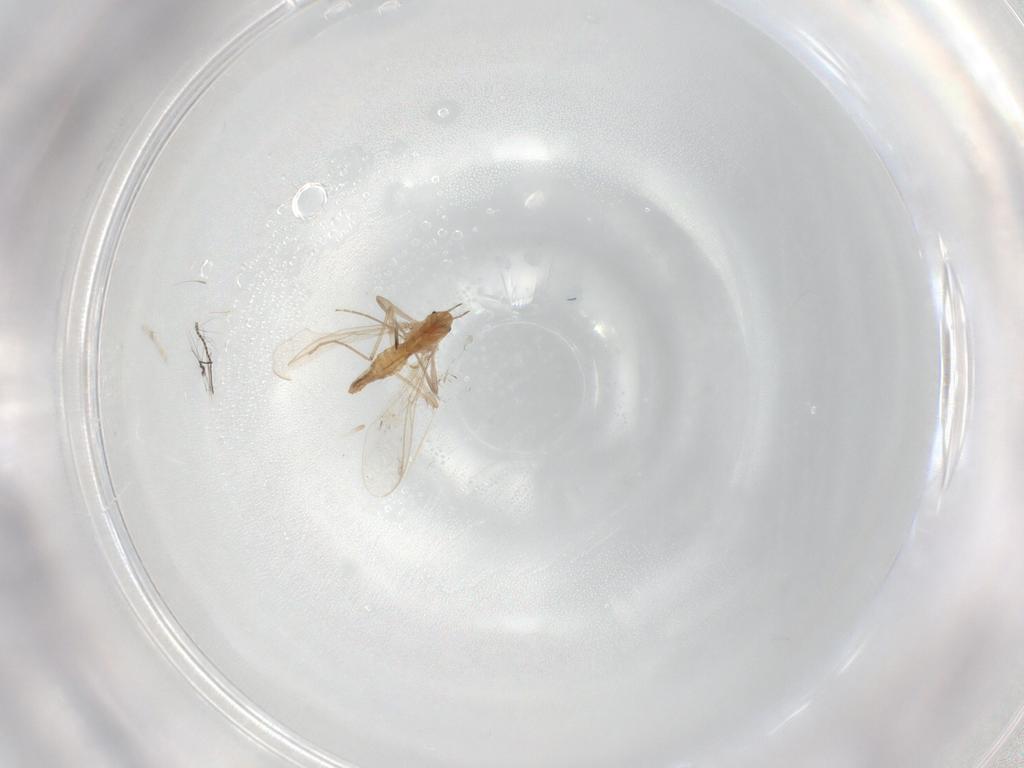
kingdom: Animalia
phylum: Arthropoda
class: Insecta
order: Diptera
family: Chironomidae
